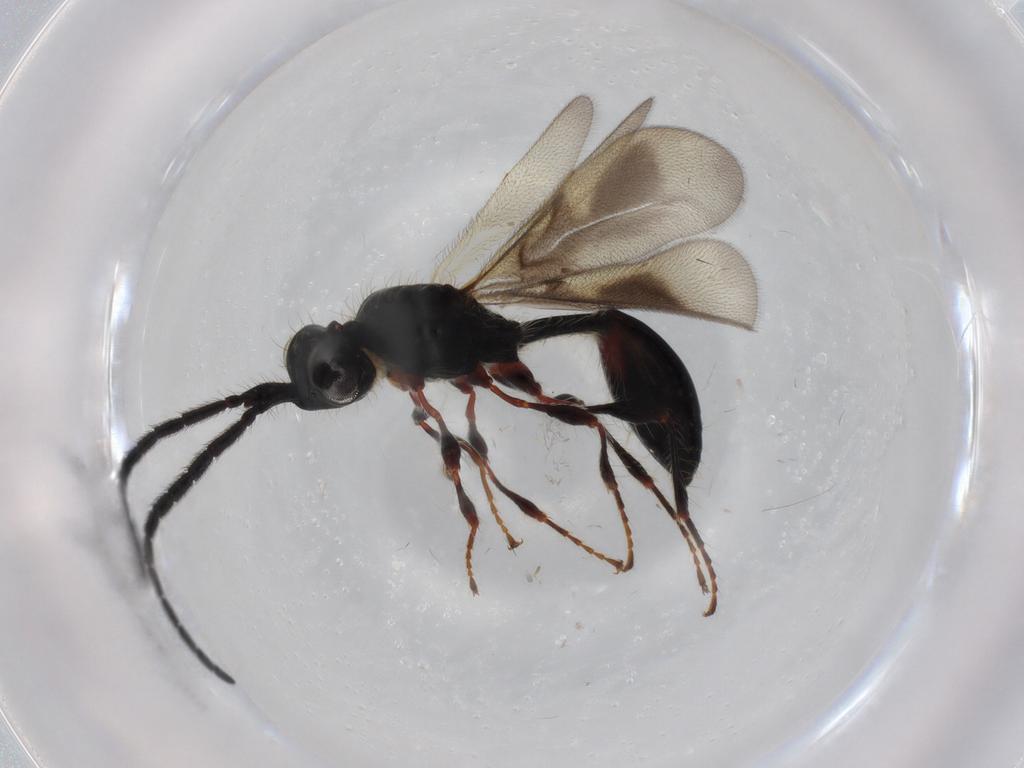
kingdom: Animalia
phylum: Arthropoda
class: Insecta
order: Hymenoptera
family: Diapriidae
